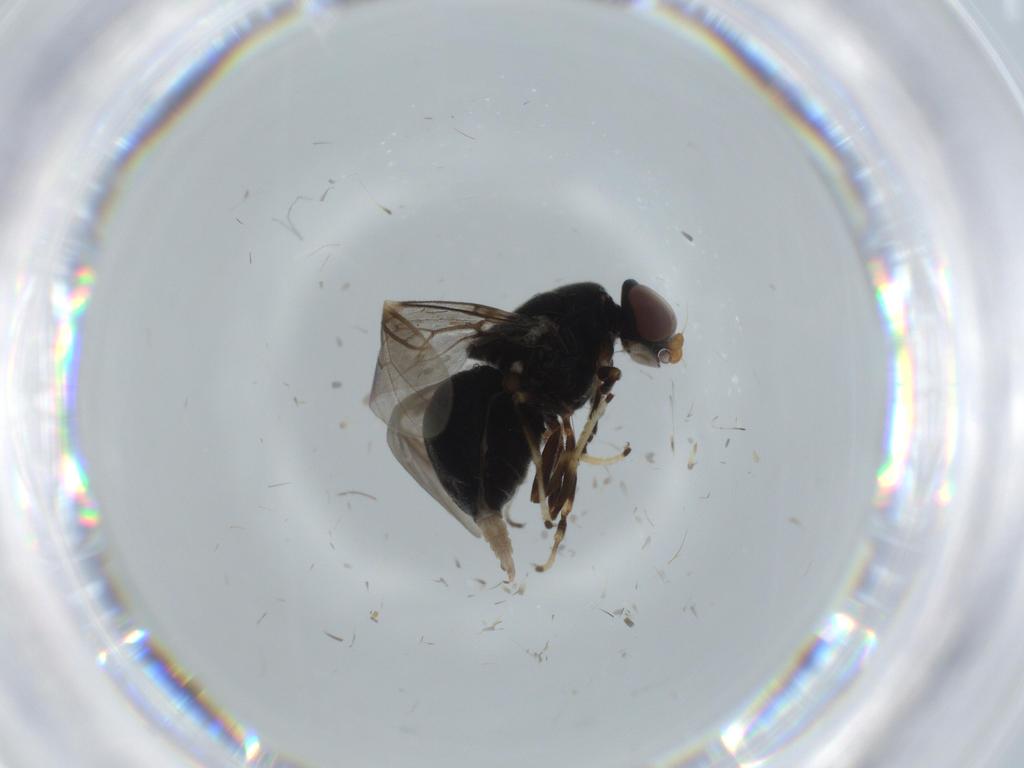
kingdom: Animalia
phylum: Arthropoda
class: Insecta
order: Diptera
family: Stratiomyidae
